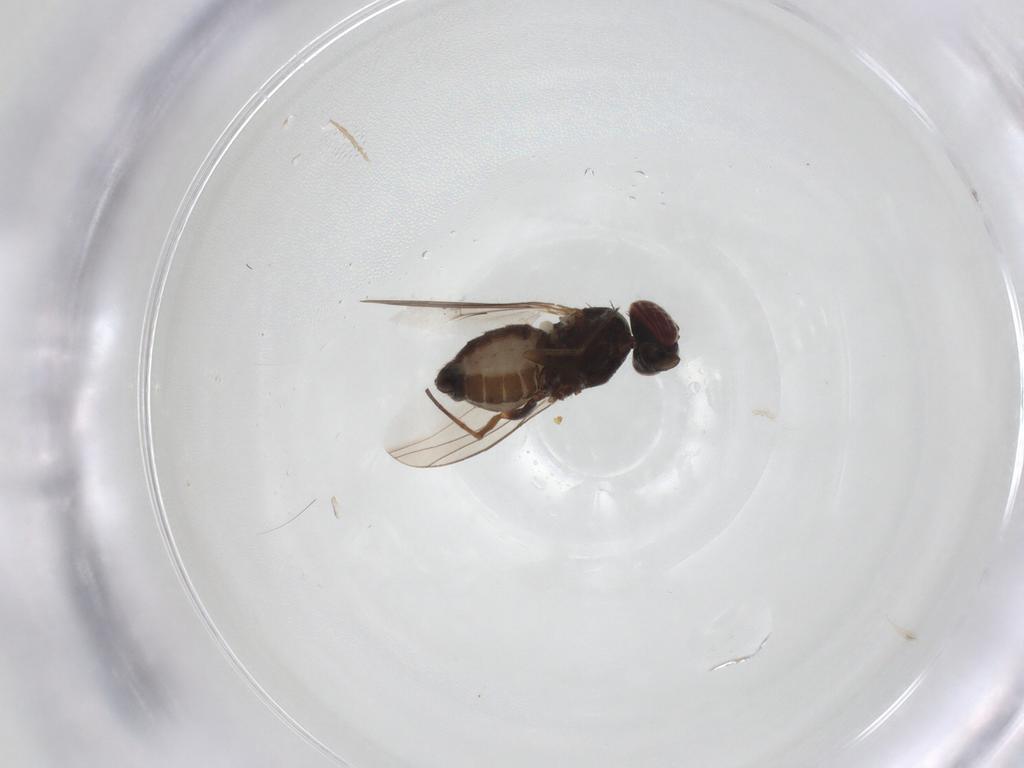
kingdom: Animalia
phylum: Arthropoda
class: Insecta
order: Diptera
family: Dolichopodidae
